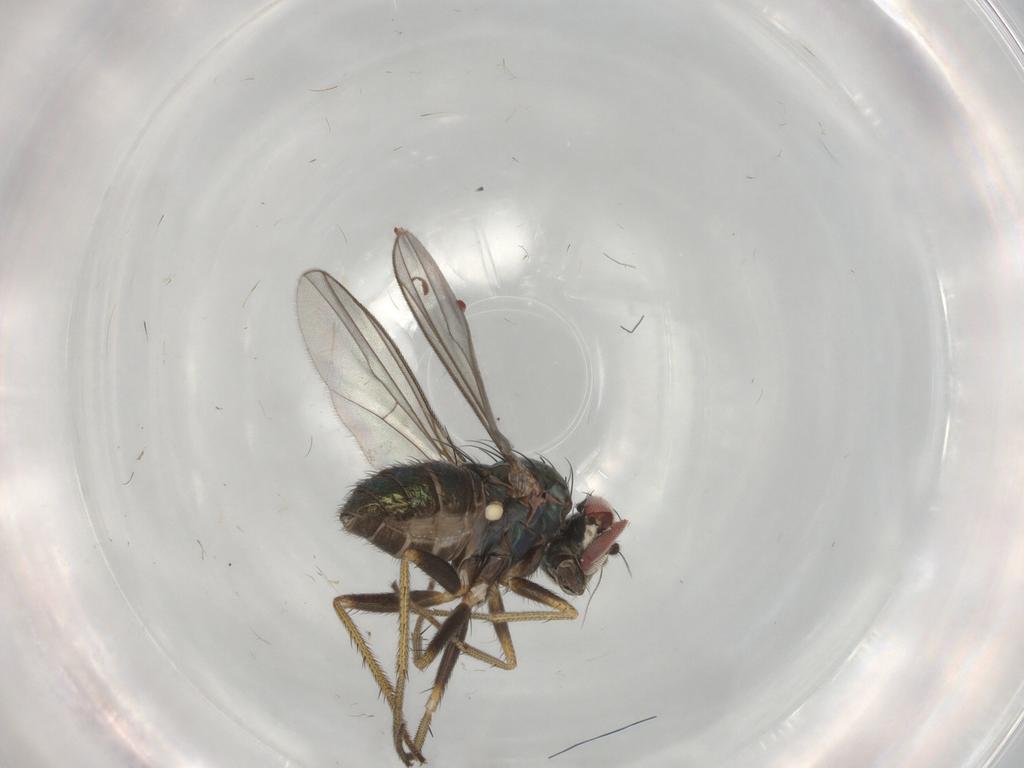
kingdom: Animalia
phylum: Arthropoda
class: Insecta
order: Diptera
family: Dolichopodidae
